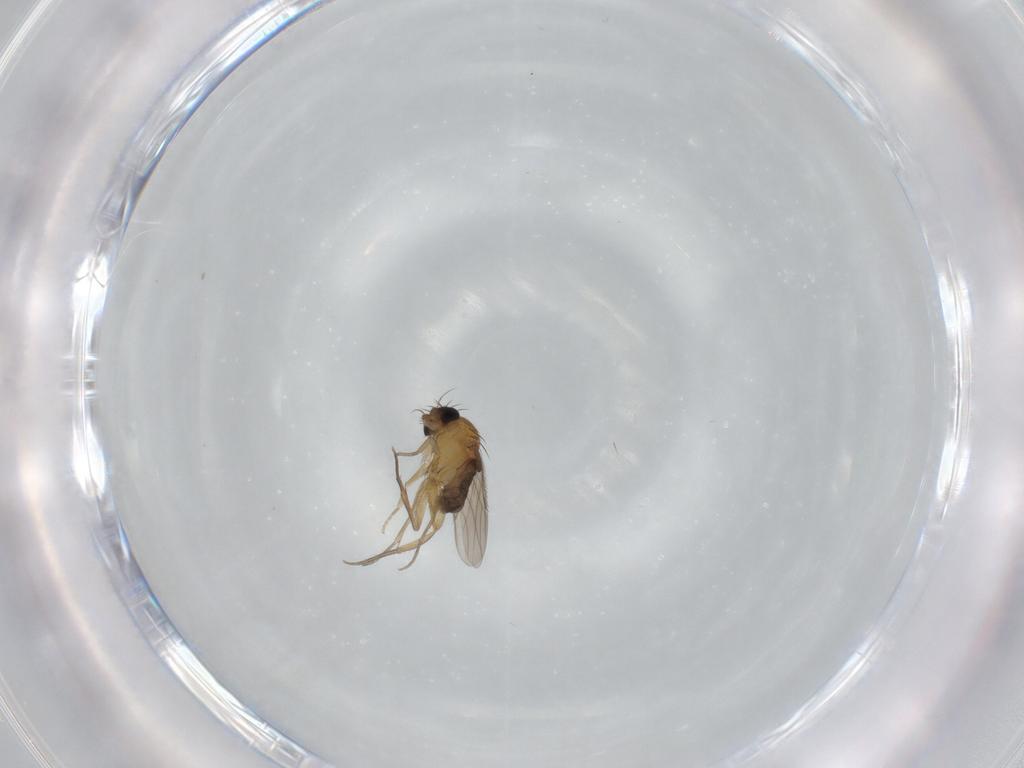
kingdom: Animalia
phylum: Arthropoda
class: Insecta
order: Diptera
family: Phoridae
